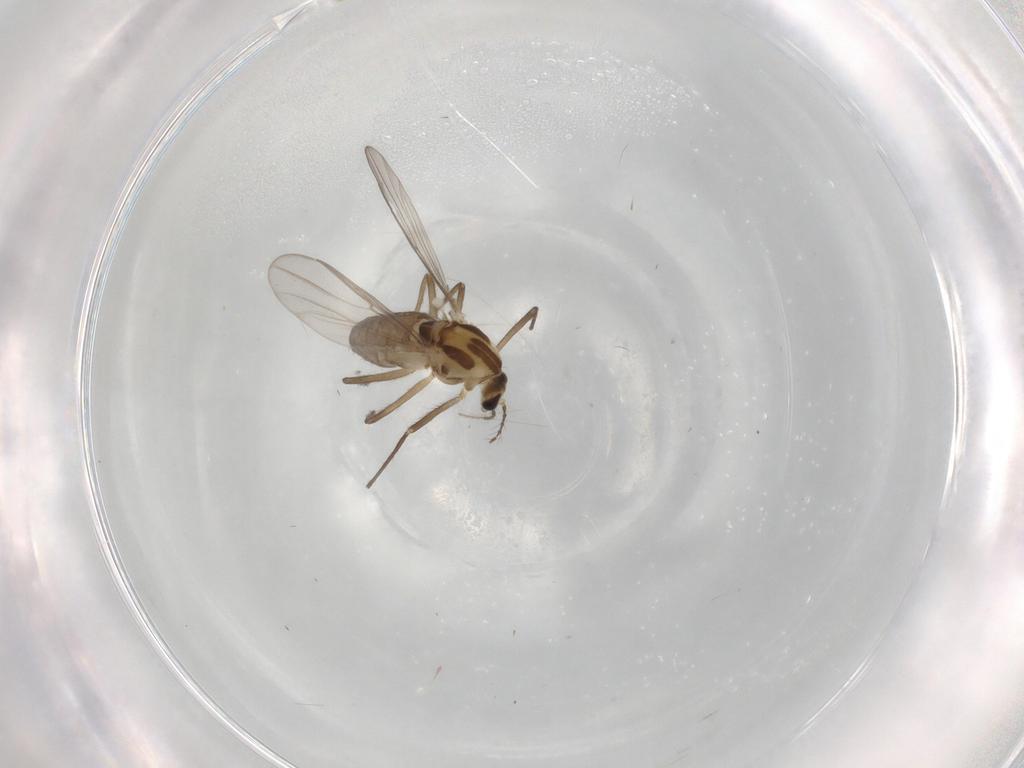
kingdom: Animalia
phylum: Arthropoda
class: Insecta
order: Diptera
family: Chironomidae
